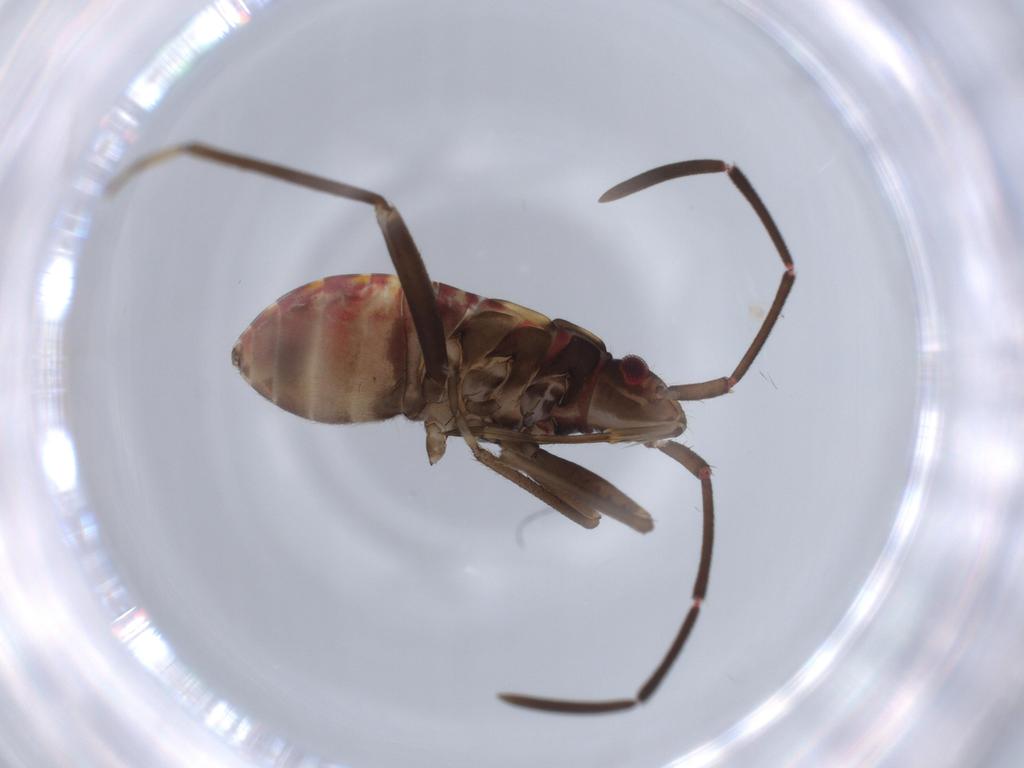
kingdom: Animalia
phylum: Arthropoda
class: Insecta
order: Hemiptera
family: Rhyparochromidae
